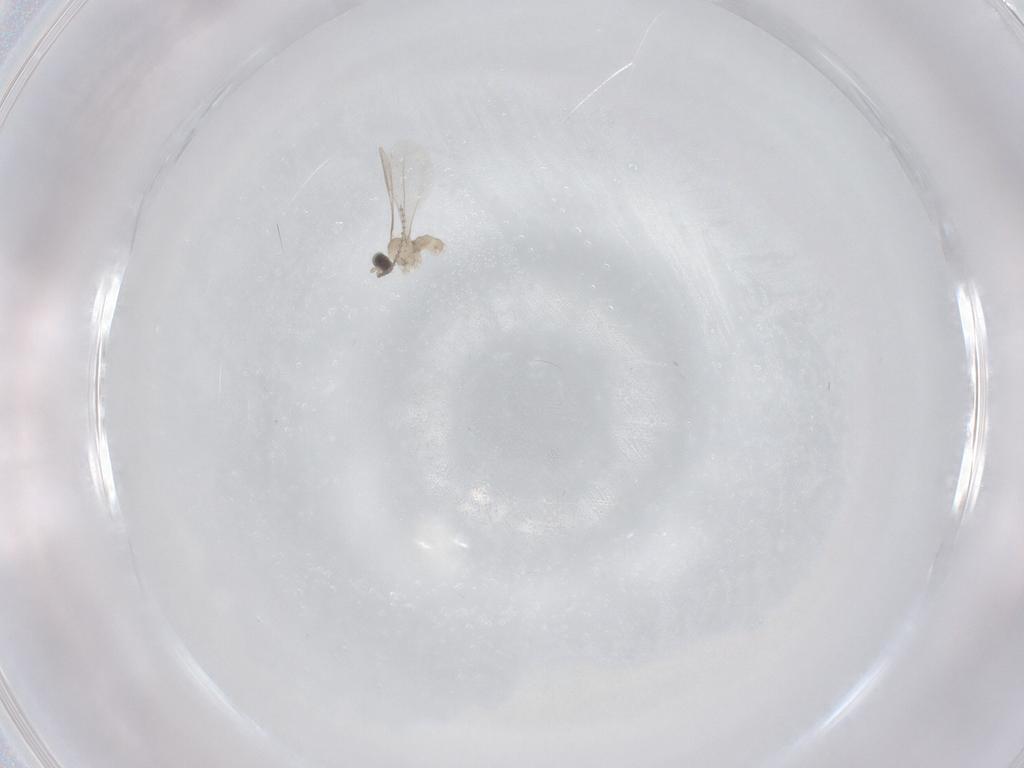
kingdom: Animalia
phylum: Arthropoda
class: Insecta
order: Diptera
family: Cecidomyiidae
